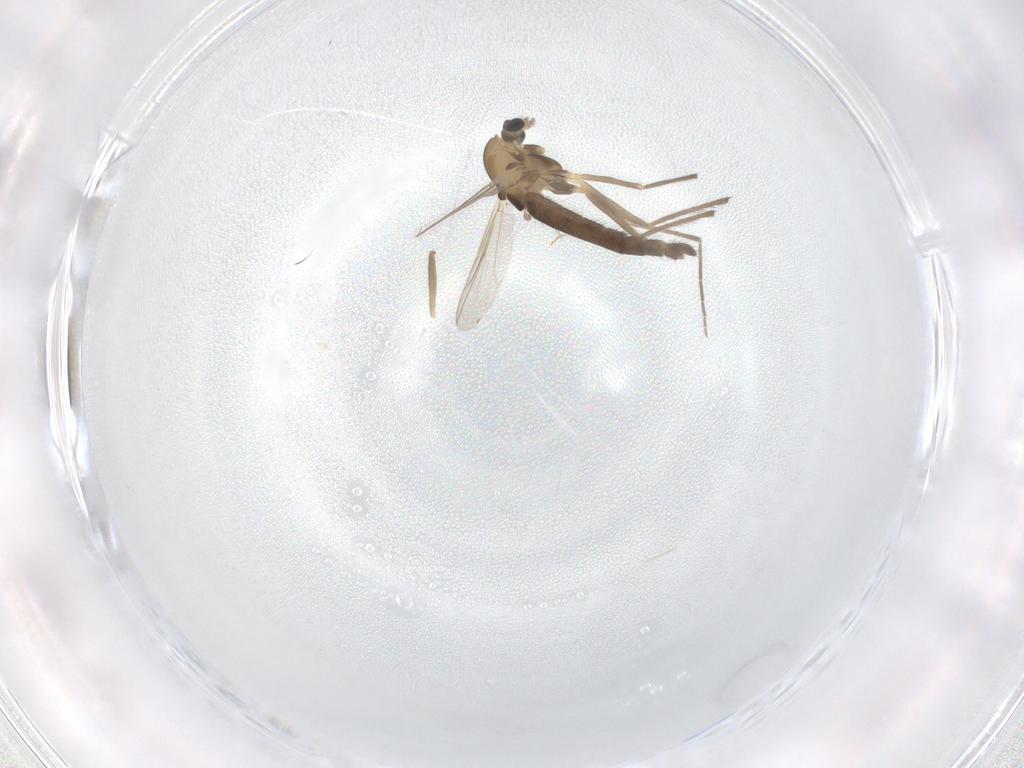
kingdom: Animalia
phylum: Arthropoda
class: Insecta
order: Diptera
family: Chironomidae
